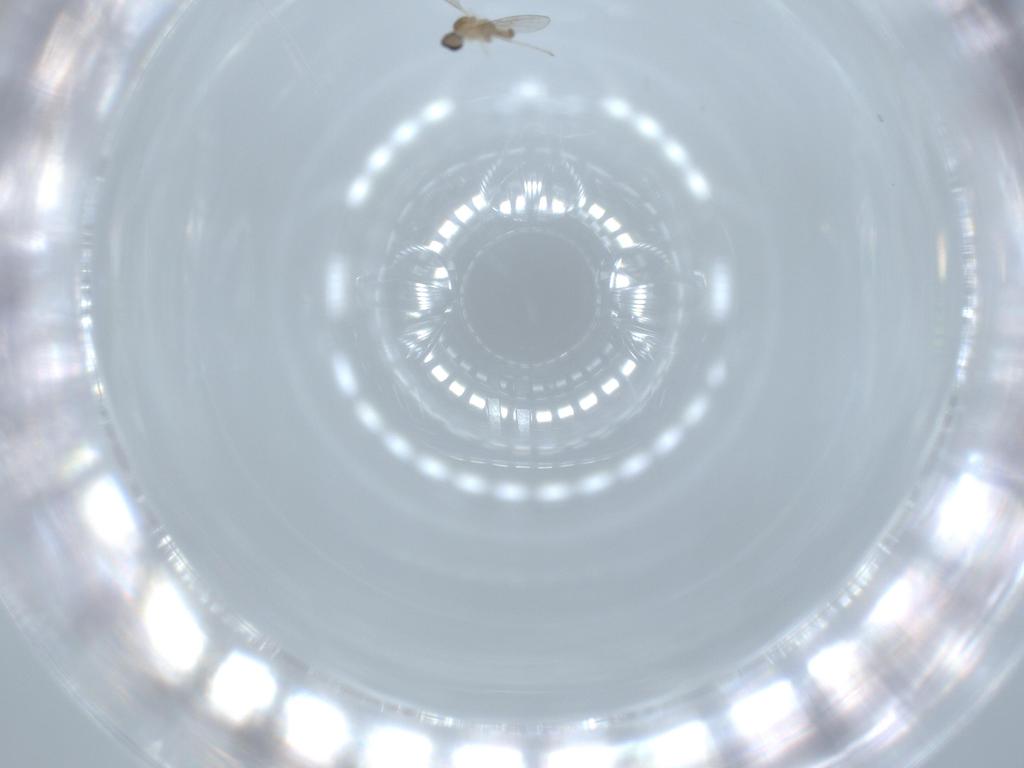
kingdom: Animalia
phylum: Arthropoda
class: Insecta
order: Diptera
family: Cecidomyiidae
